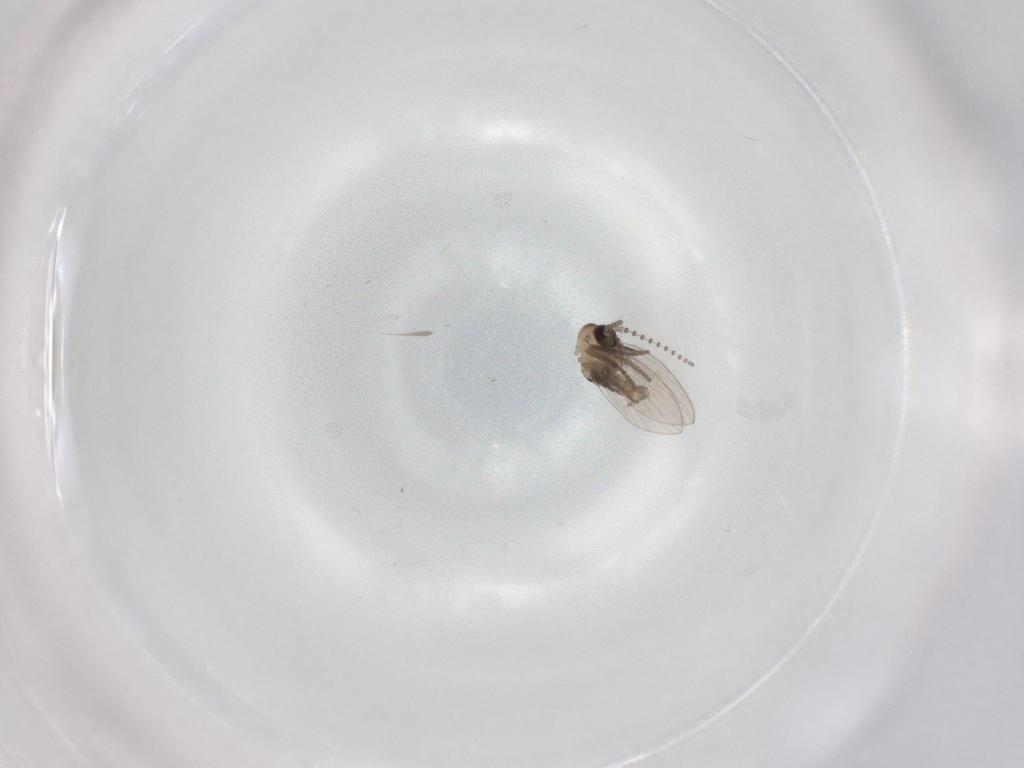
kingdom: Animalia
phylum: Arthropoda
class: Insecta
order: Diptera
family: Psychodidae
